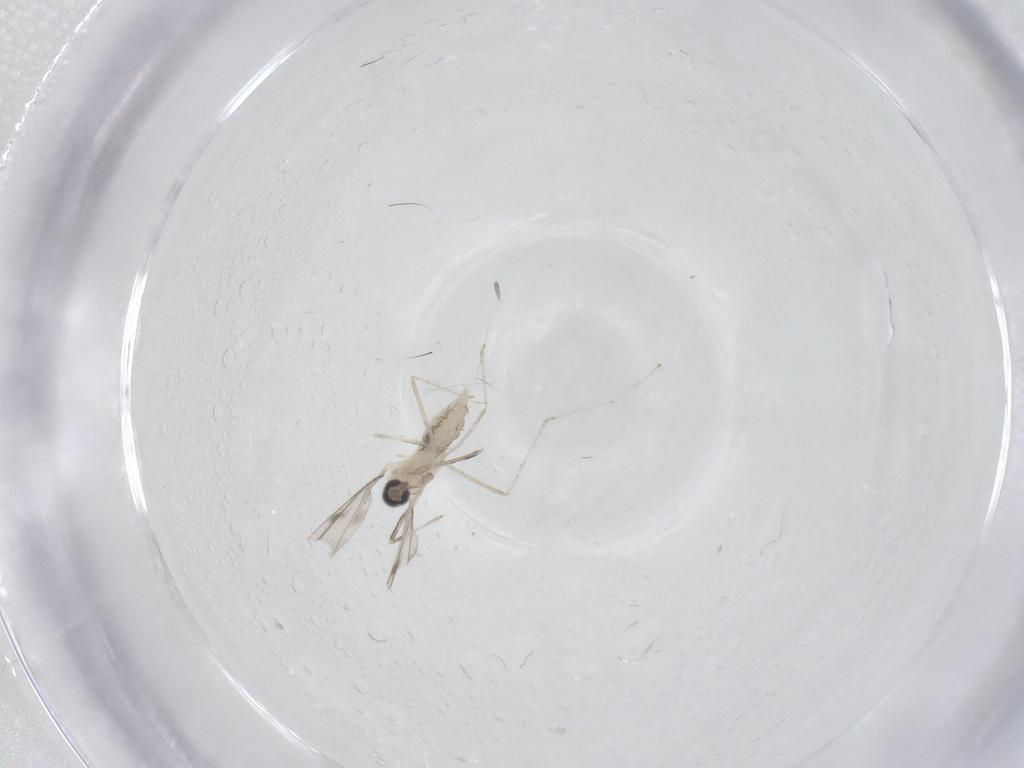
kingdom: Animalia
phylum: Arthropoda
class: Insecta
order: Diptera
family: Cecidomyiidae
